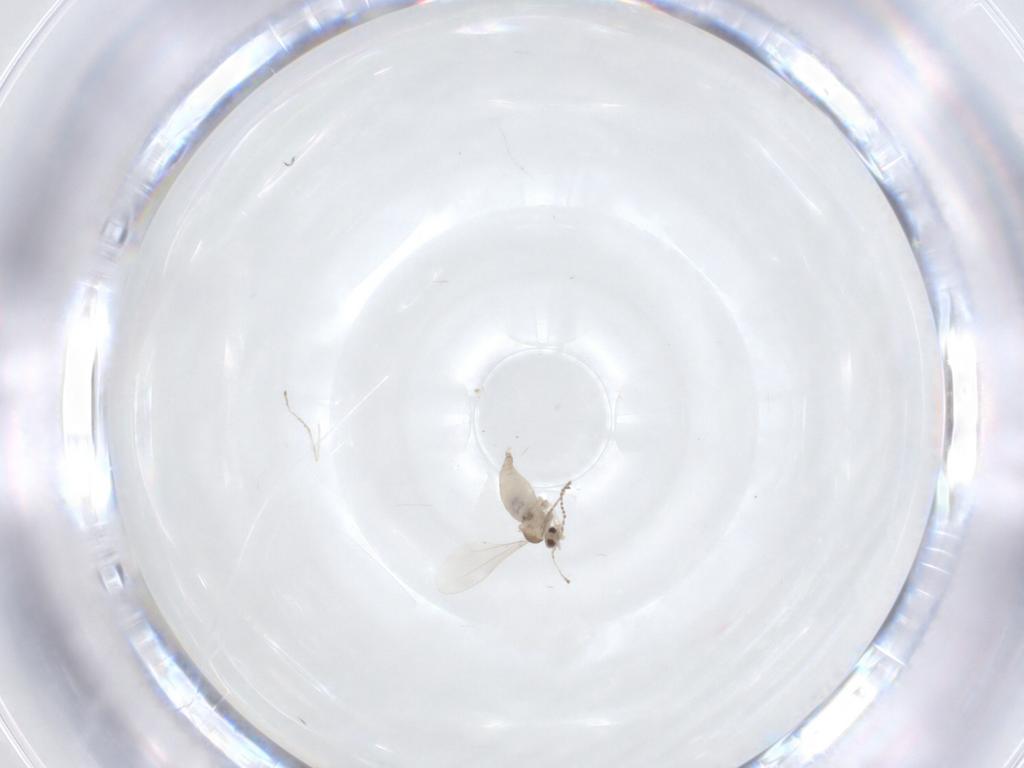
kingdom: Animalia
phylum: Arthropoda
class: Insecta
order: Diptera
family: Cecidomyiidae
